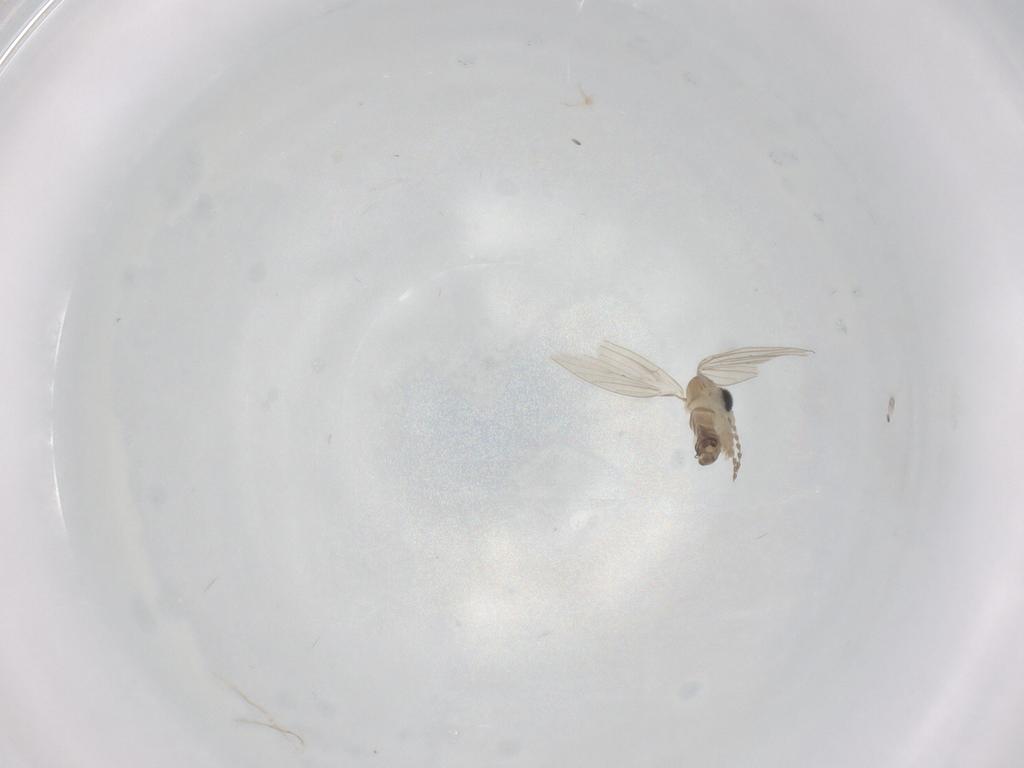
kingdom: Animalia
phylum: Arthropoda
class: Insecta
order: Diptera
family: Psychodidae
